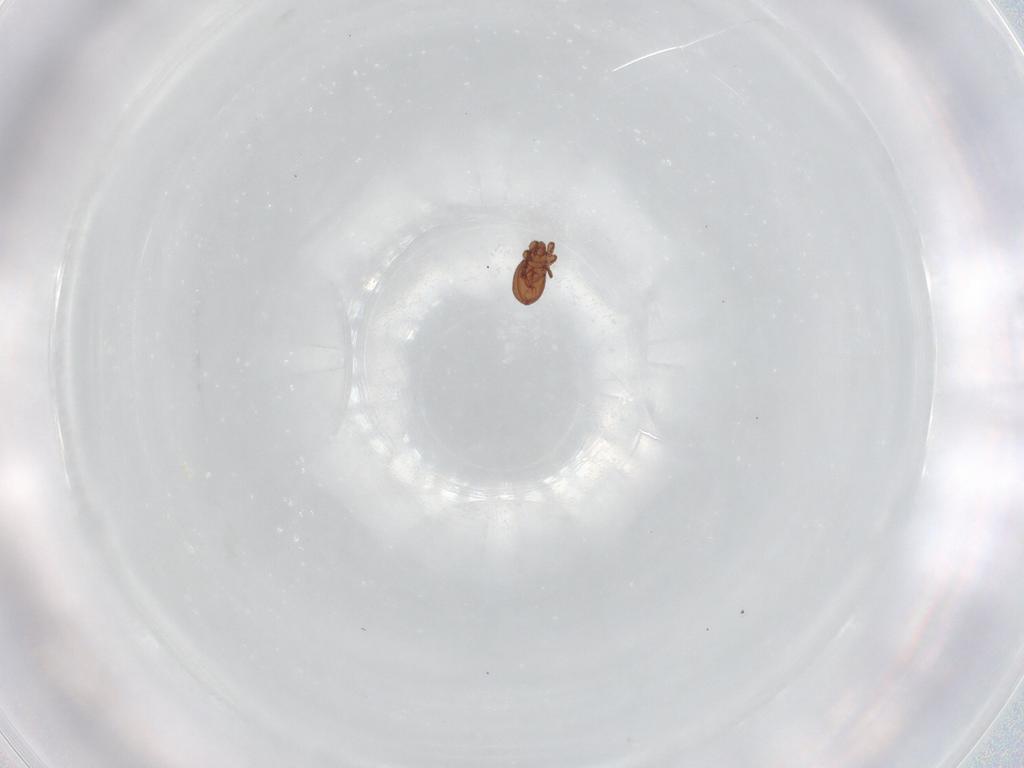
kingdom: Animalia
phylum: Arthropoda
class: Arachnida
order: Sarcoptiformes
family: Eremaeidae
